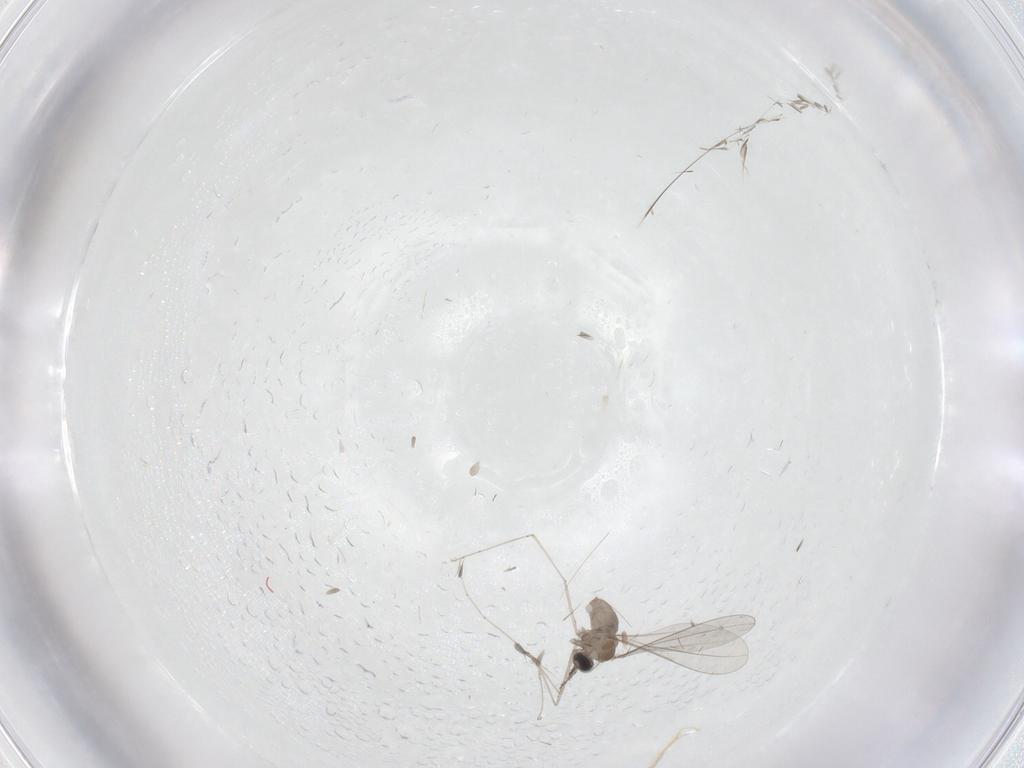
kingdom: Animalia
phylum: Arthropoda
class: Insecta
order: Diptera
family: Cecidomyiidae
